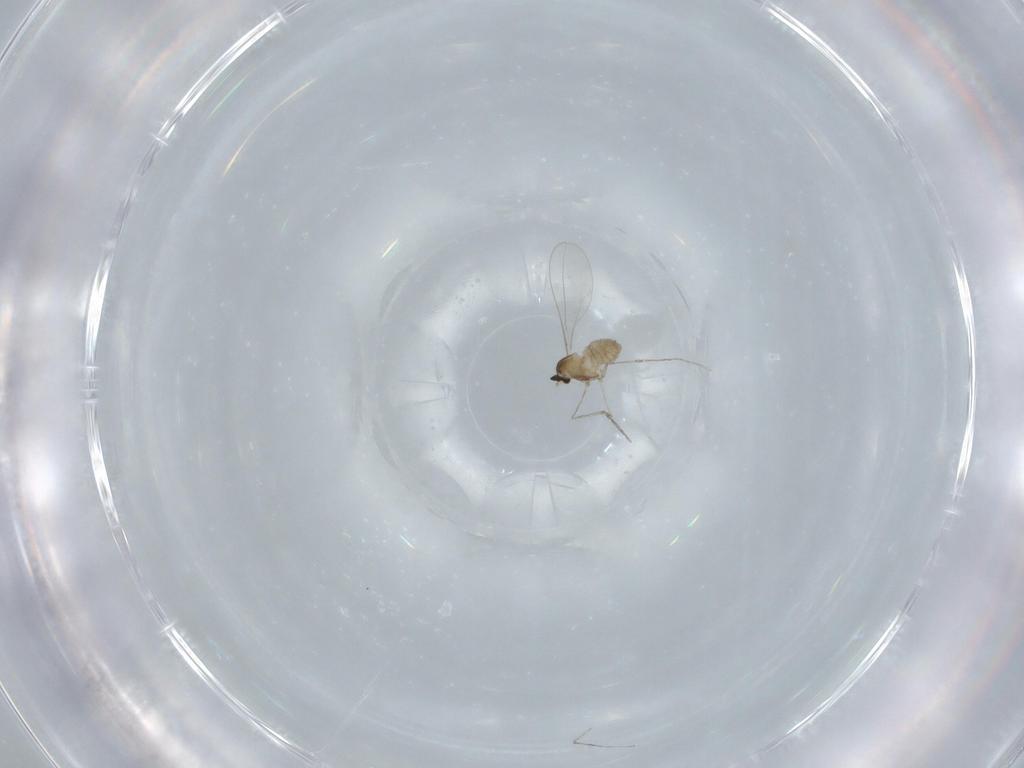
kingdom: Animalia
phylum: Arthropoda
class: Insecta
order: Diptera
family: Cecidomyiidae
